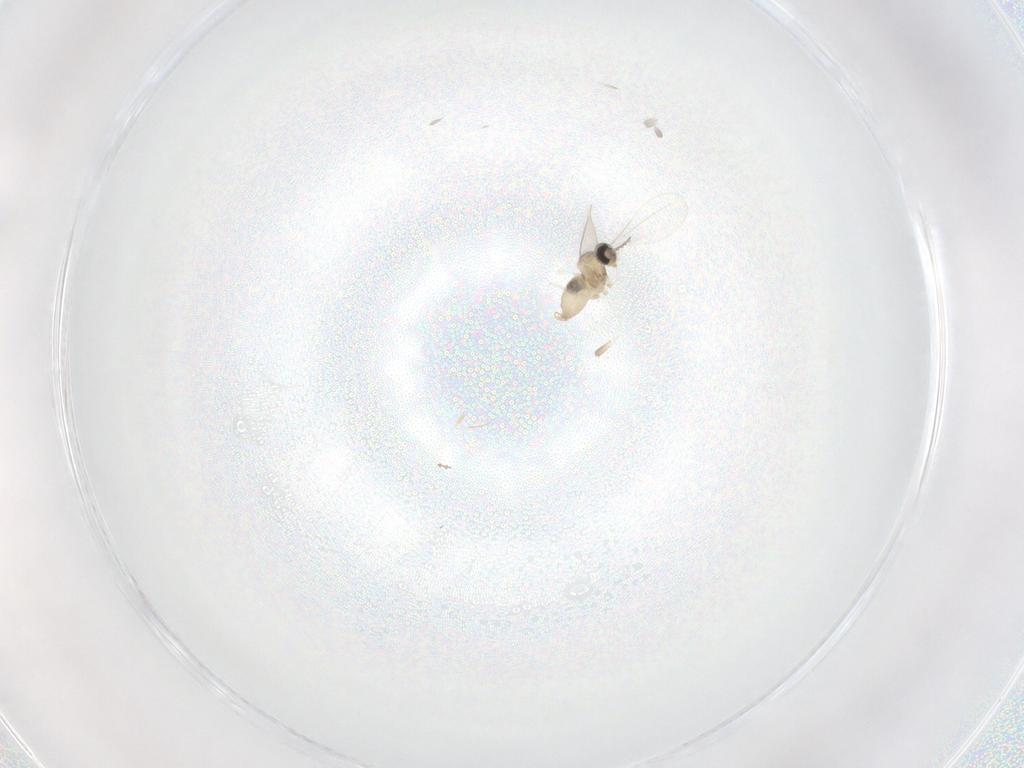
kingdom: Animalia
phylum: Arthropoda
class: Insecta
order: Diptera
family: Cecidomyiidae
